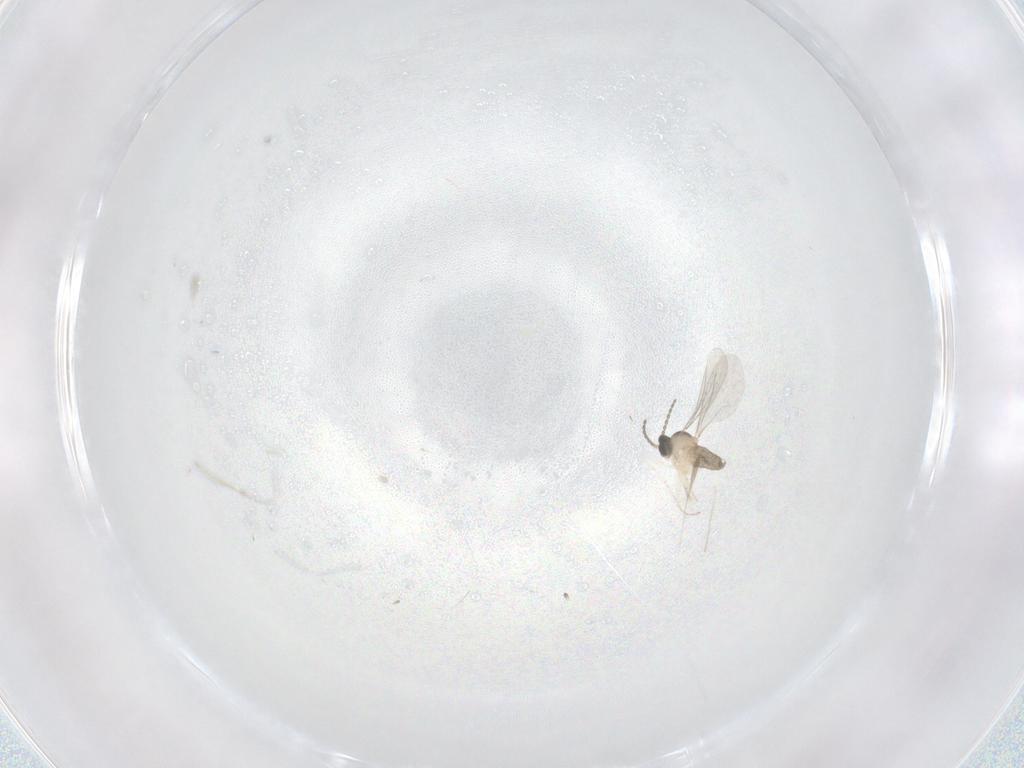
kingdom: Animalia
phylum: Arthropoda
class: Insecta
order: Diptera
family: Cecidomyiidae
